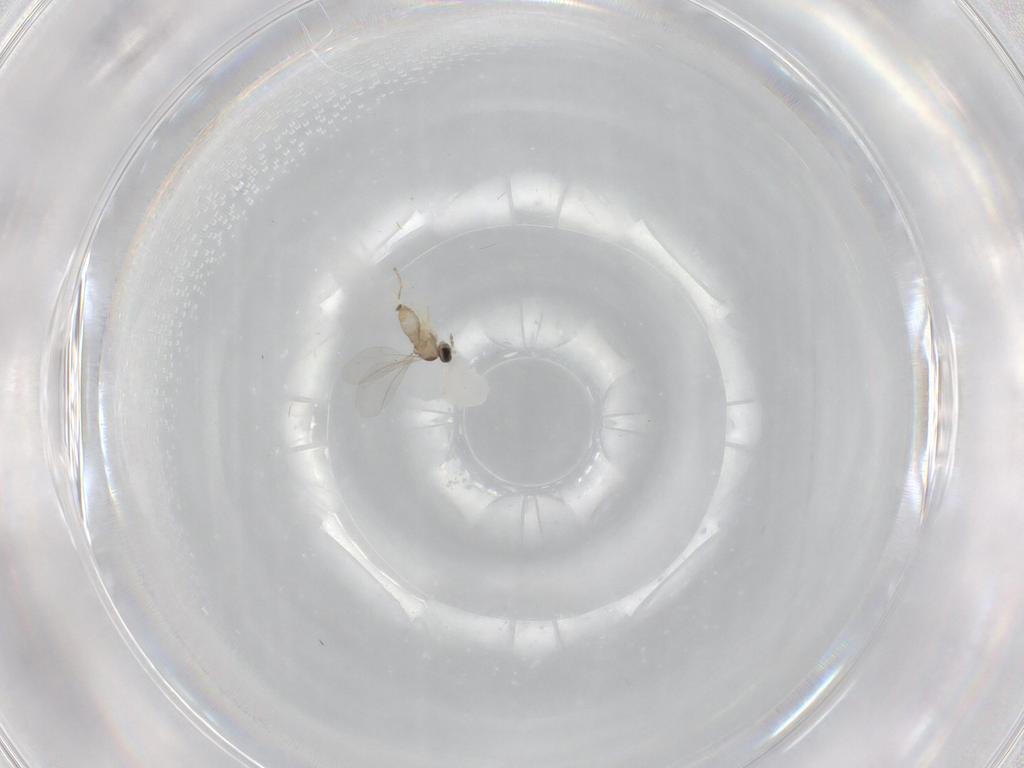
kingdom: Animalia
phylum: Arthropoda
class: Insecta
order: Diptera
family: Cecidomyiidae
